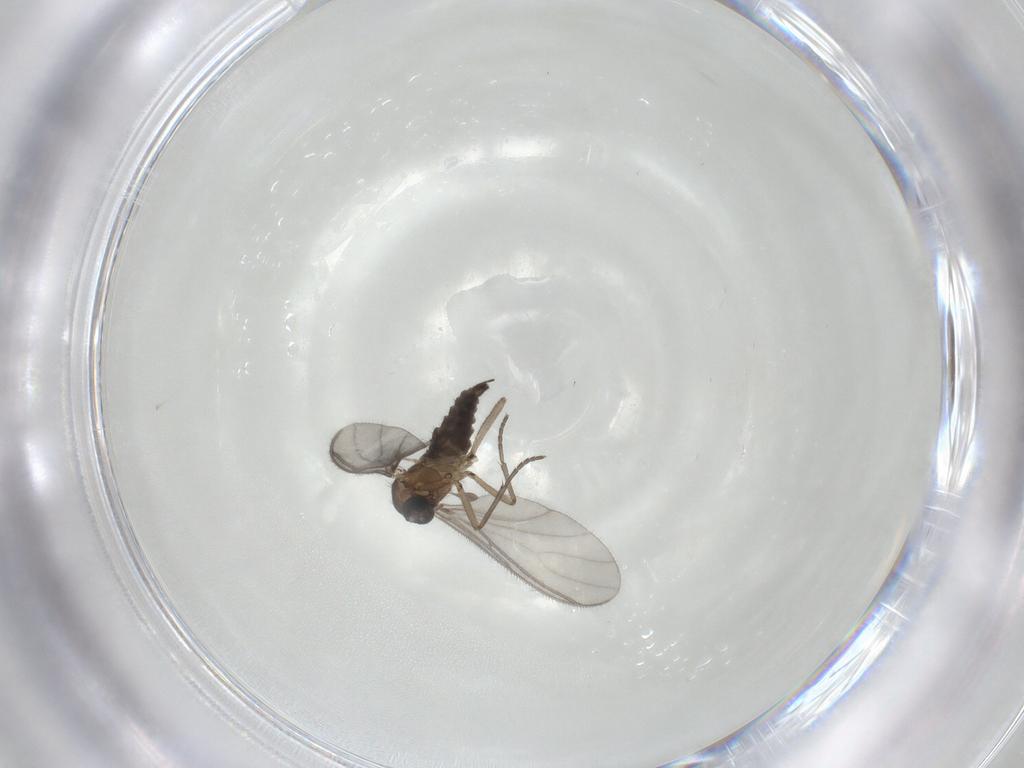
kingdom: Animalia
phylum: Arthropoda
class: Insecta
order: Diptera
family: Sciaridae
